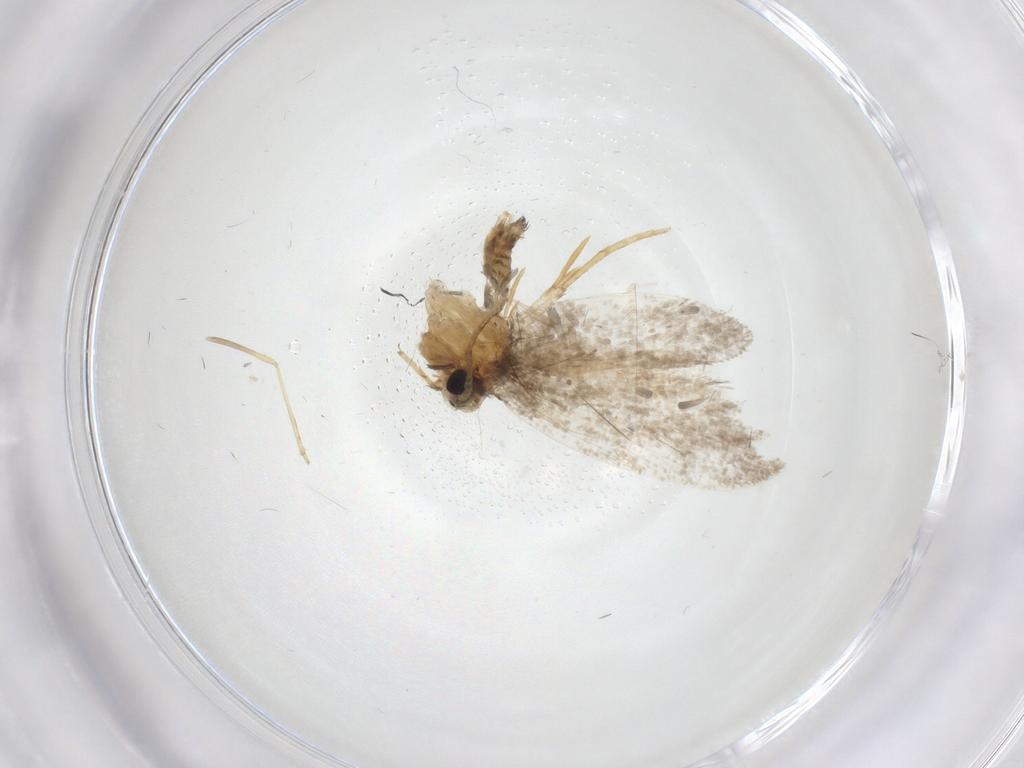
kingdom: Animalia
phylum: Arthropoda
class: Insecta
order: Lepidoptera
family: Psychidae
